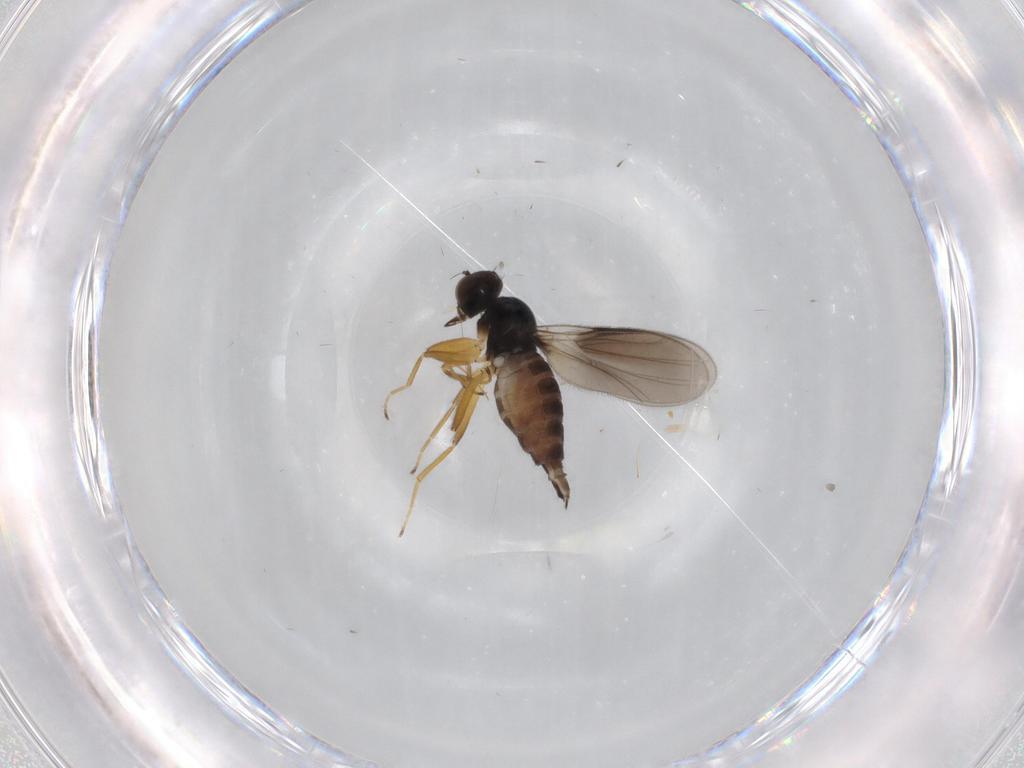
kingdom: Animalia
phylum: Arthropoda
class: Insecta
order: Diptera
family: Hybotidae
